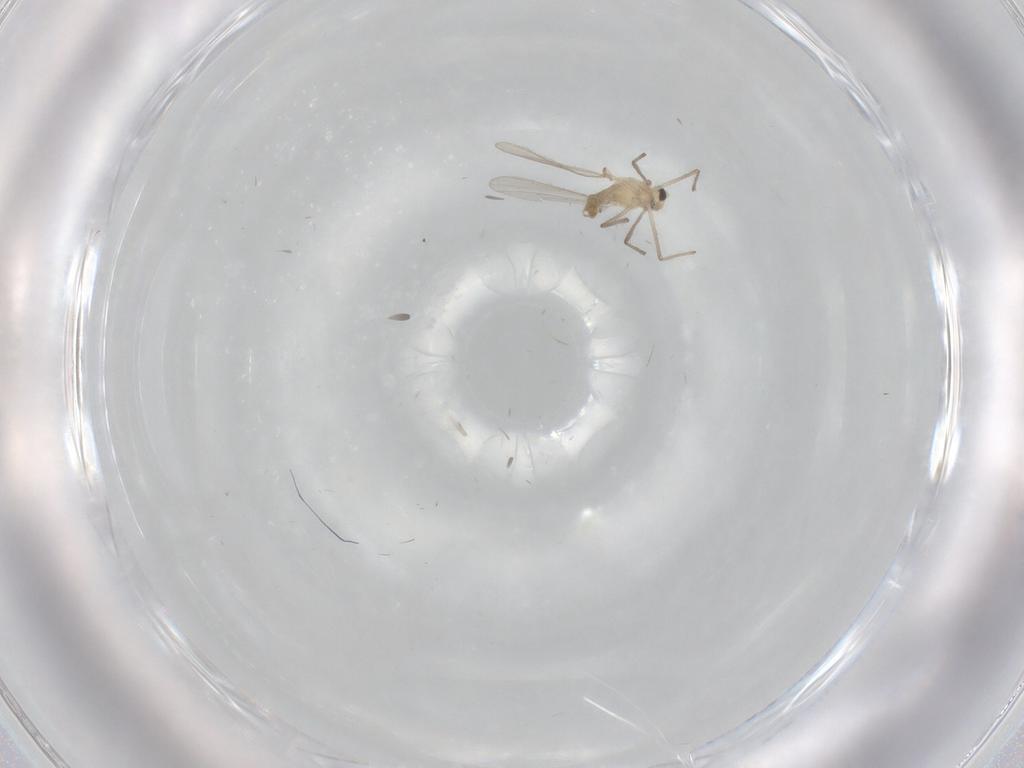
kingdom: Animalia
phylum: Arthropoda
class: Insecta
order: Diptera
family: Chironomidae
